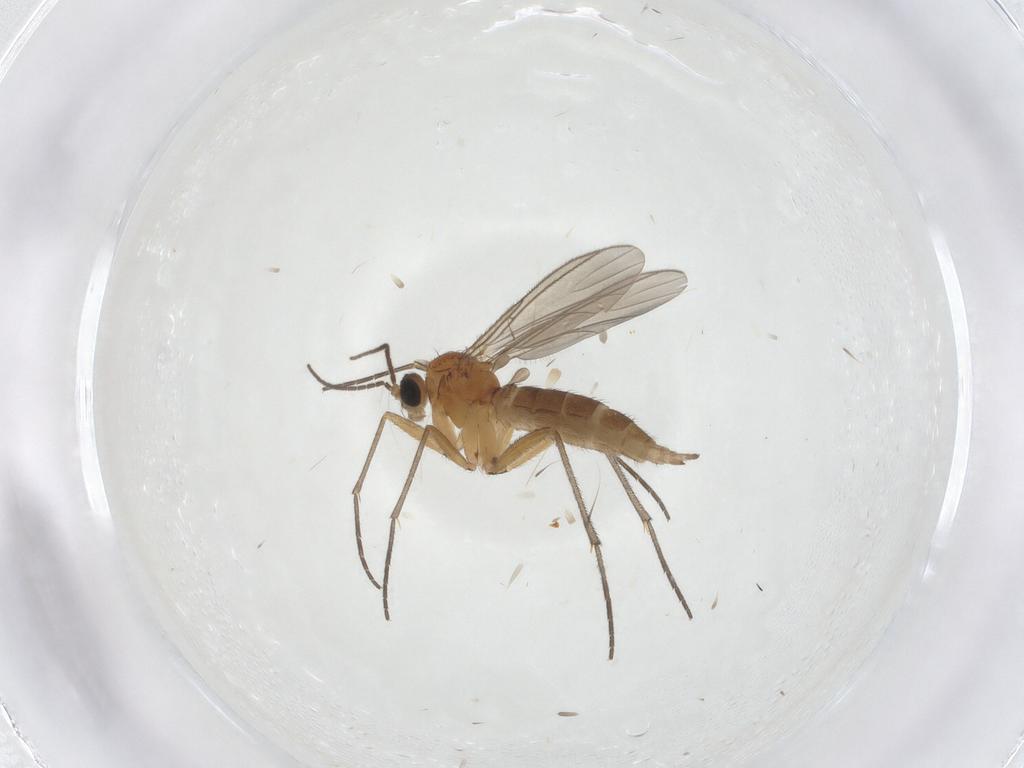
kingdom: Animalia
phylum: Arthropoda
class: Insecta
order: Diptera
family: Sciaridae
